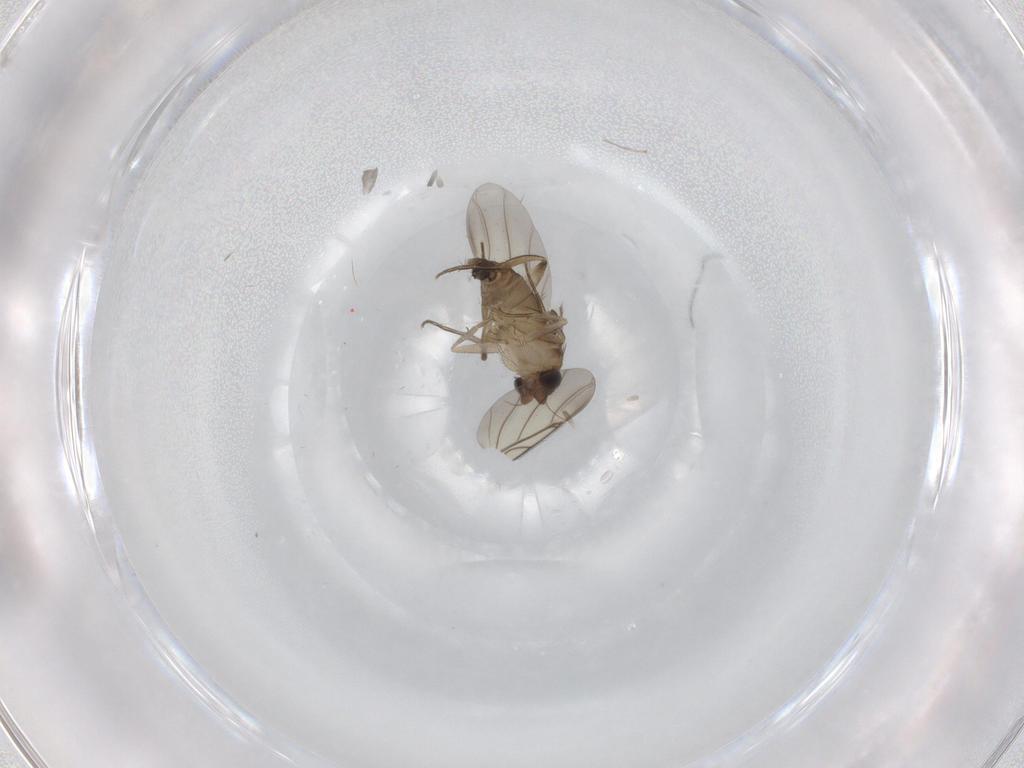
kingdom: Animalia
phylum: Arthropoda
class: Insecta
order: Diptera
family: Phoridae
